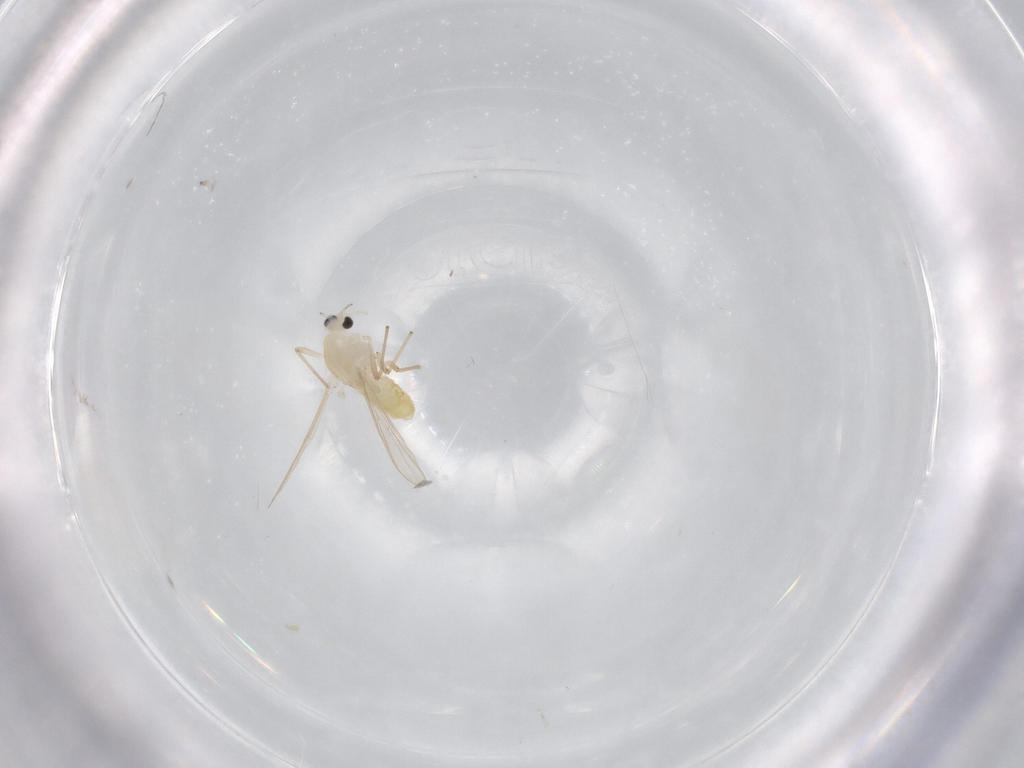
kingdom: Animalia
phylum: Arthropoda
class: Insecta
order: Diptera
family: Chironomidae
